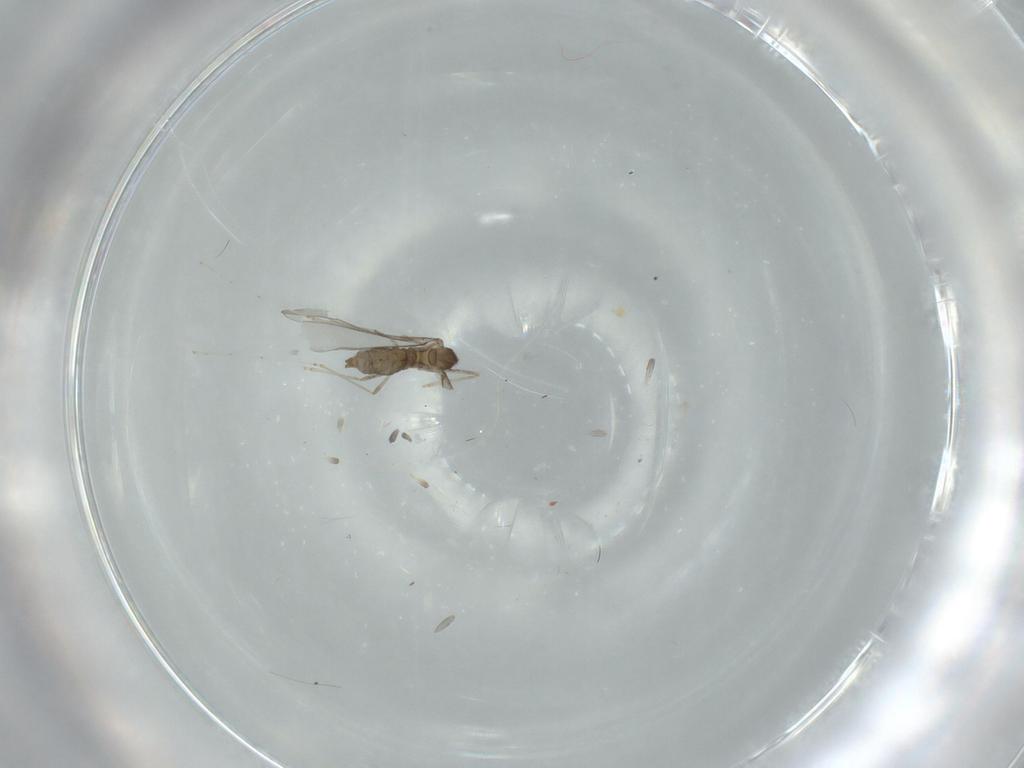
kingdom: Animalia
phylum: Arthropoda
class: Insecta
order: Diptera
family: Cecidomyiidae
